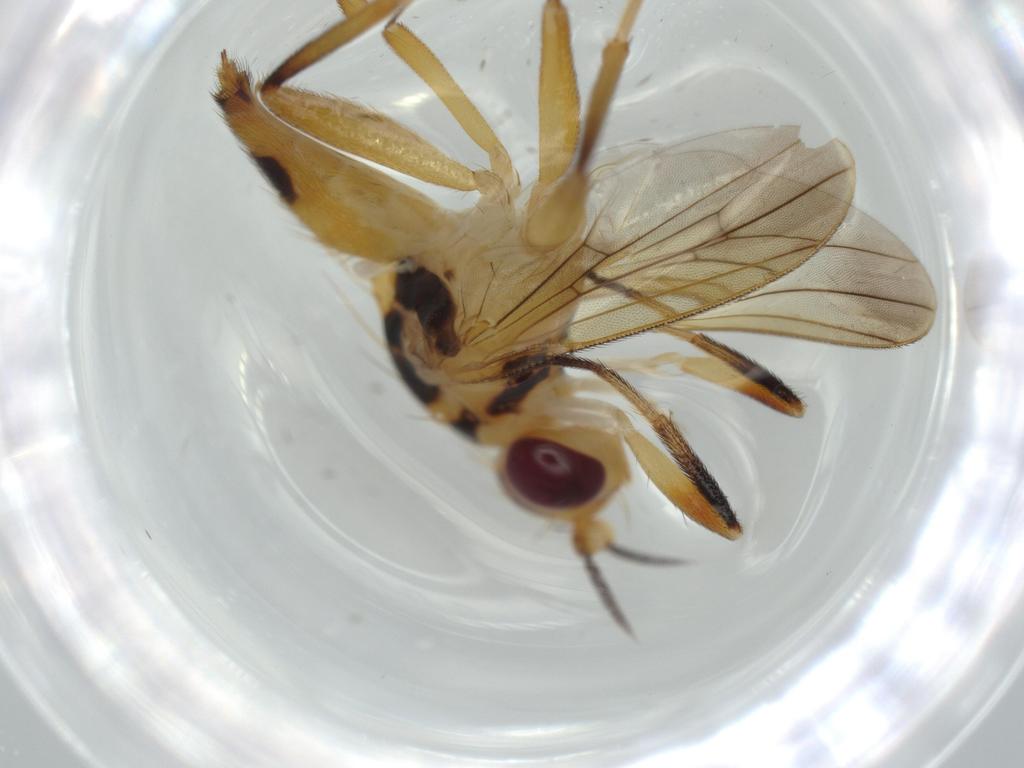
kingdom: Animalia
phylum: Arthropoda
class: Insecta
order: Diptera
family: Clusiidae
